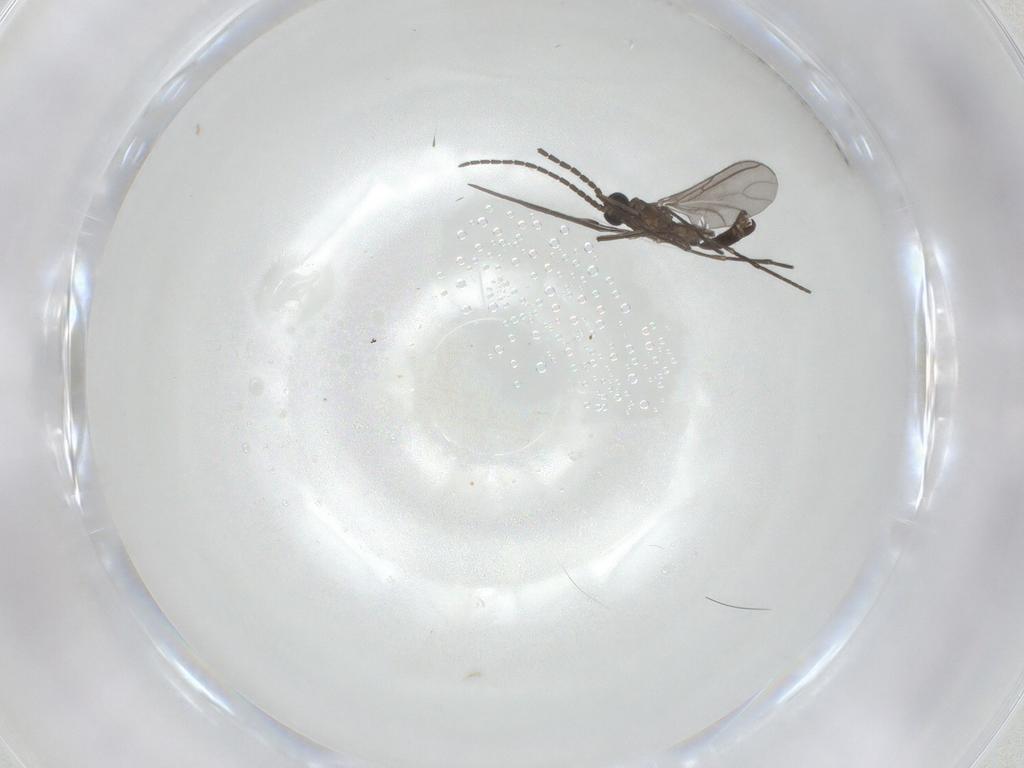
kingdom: Animalia
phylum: Arthropoda
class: Insecta
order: Diptera
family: Sciaridae
